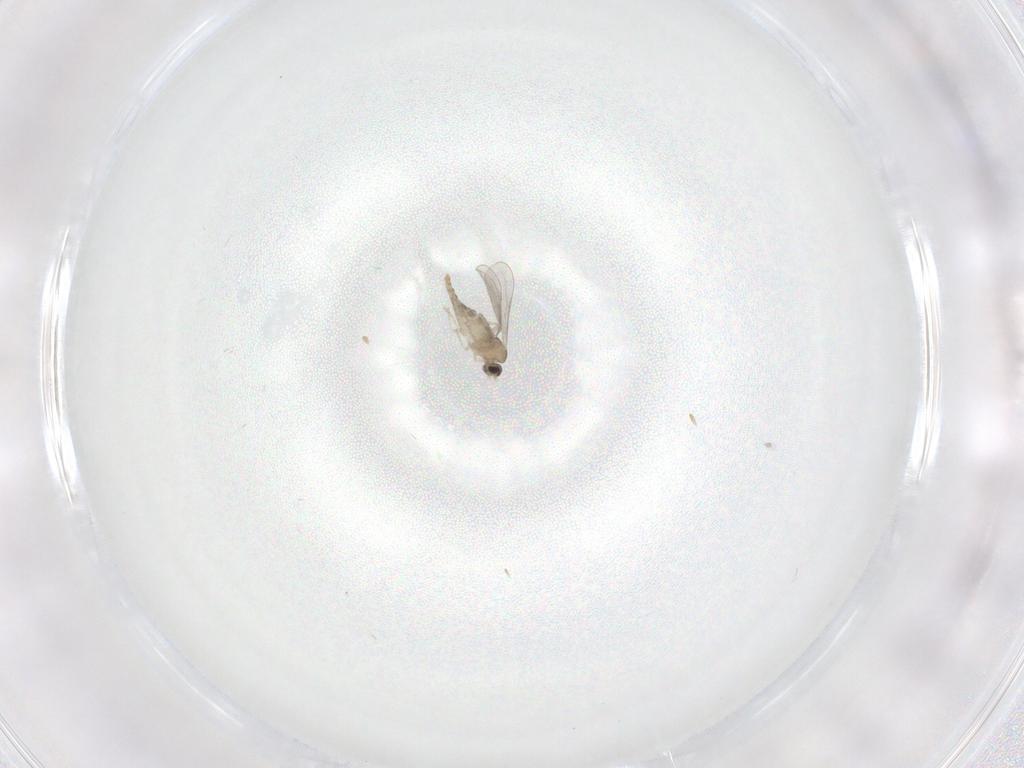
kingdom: Animalia
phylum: Arthropoda
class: Insecta
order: Diptera
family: Cecidomyiidae
